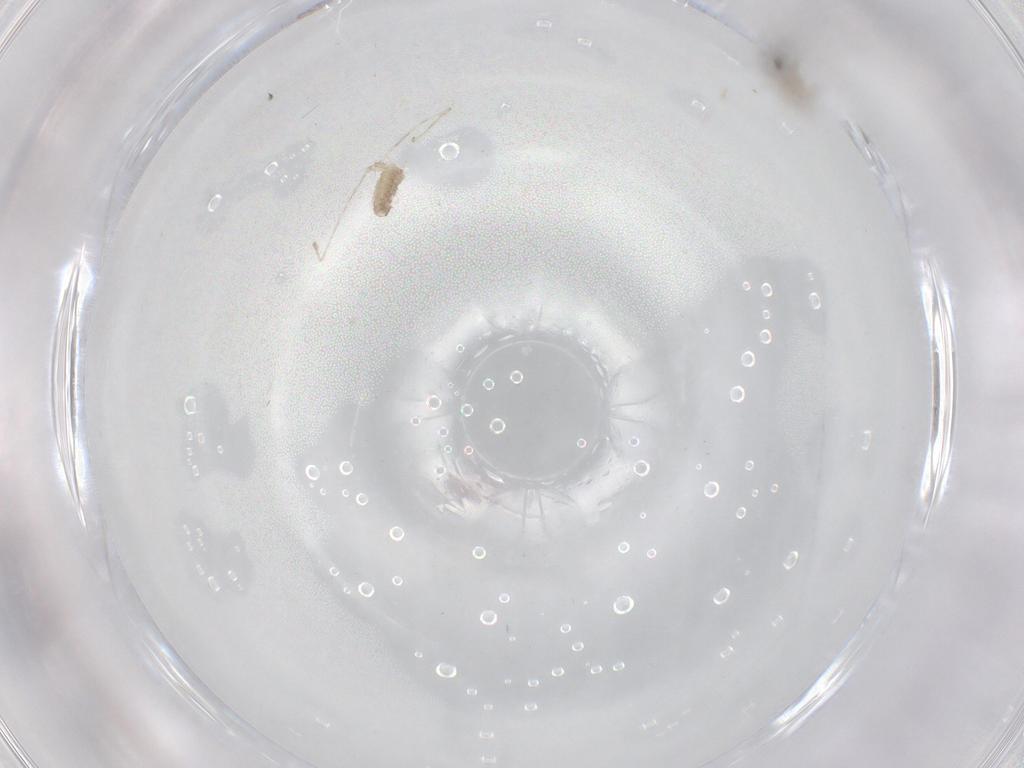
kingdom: Animalia
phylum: Arthropoda
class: Insecta
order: Diptera
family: Cecidomyiidae
